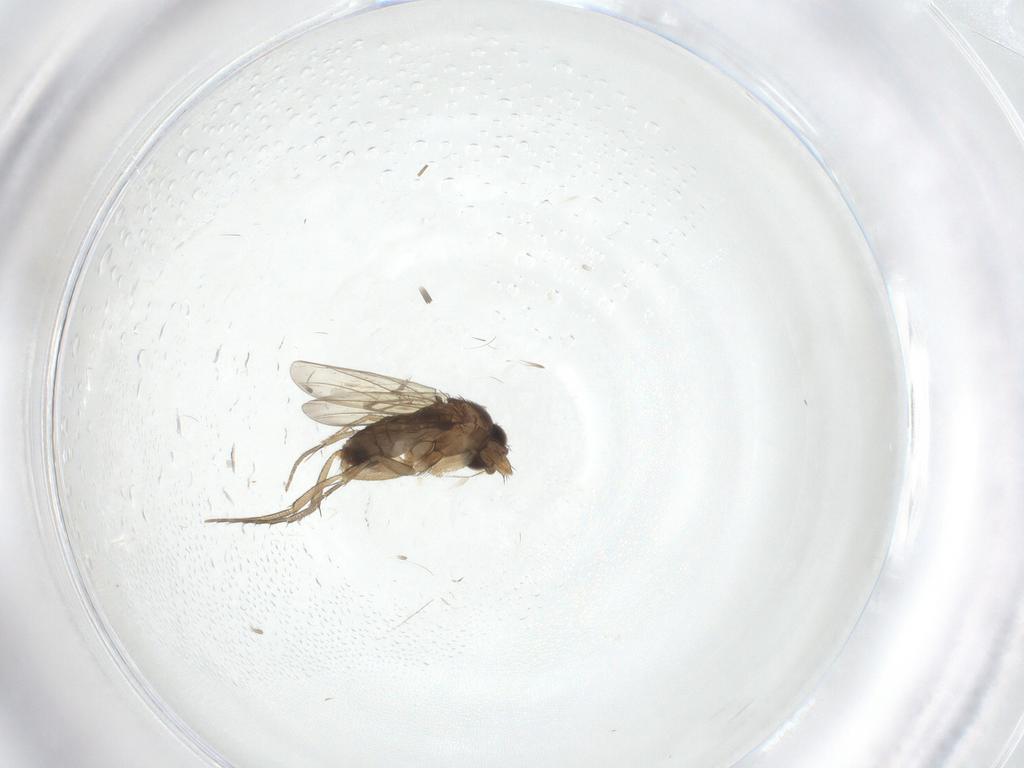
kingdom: Animalia
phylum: Arthropoda
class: Insecta
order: Diptera
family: Phoridae
